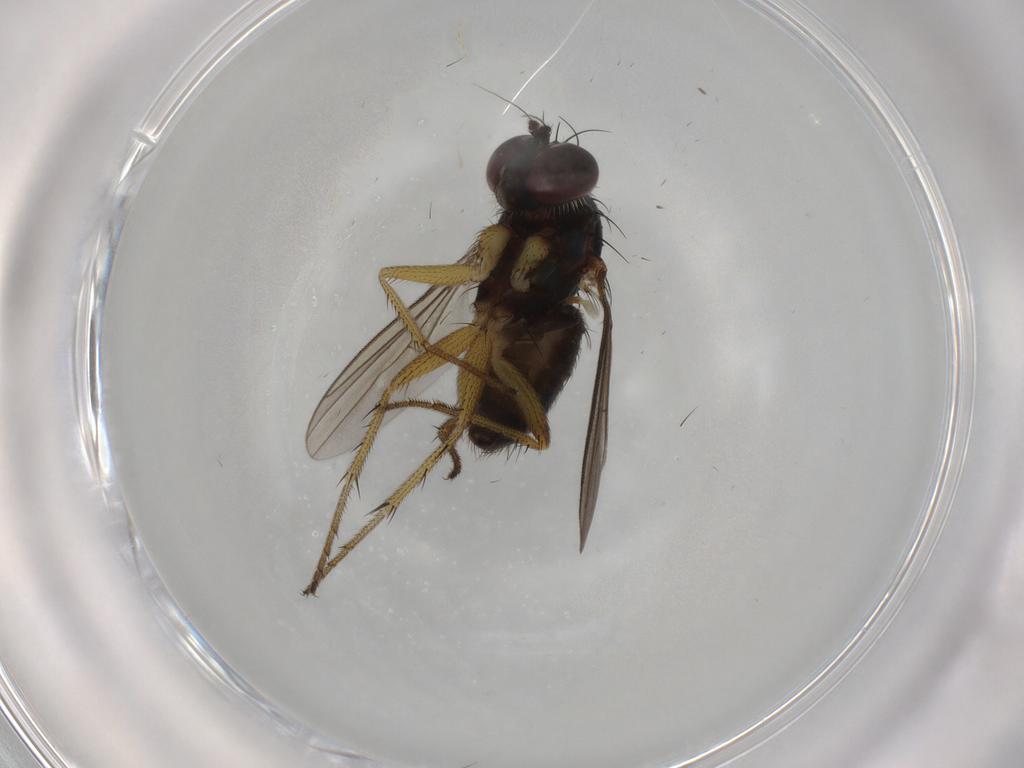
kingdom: Animalia
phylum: Arthropoda
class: Insecta
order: Diptera
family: Dolichopodidae
